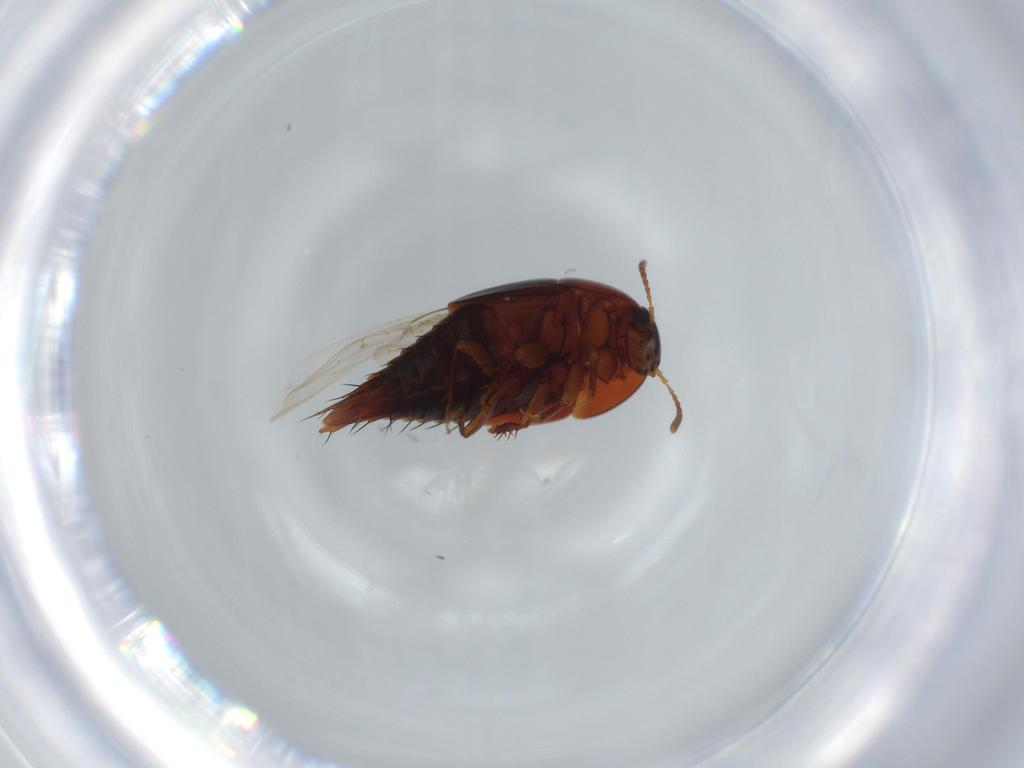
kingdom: Animalia
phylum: Arthropoda
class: Insecta
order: Coleoptera
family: Staphylinidae
